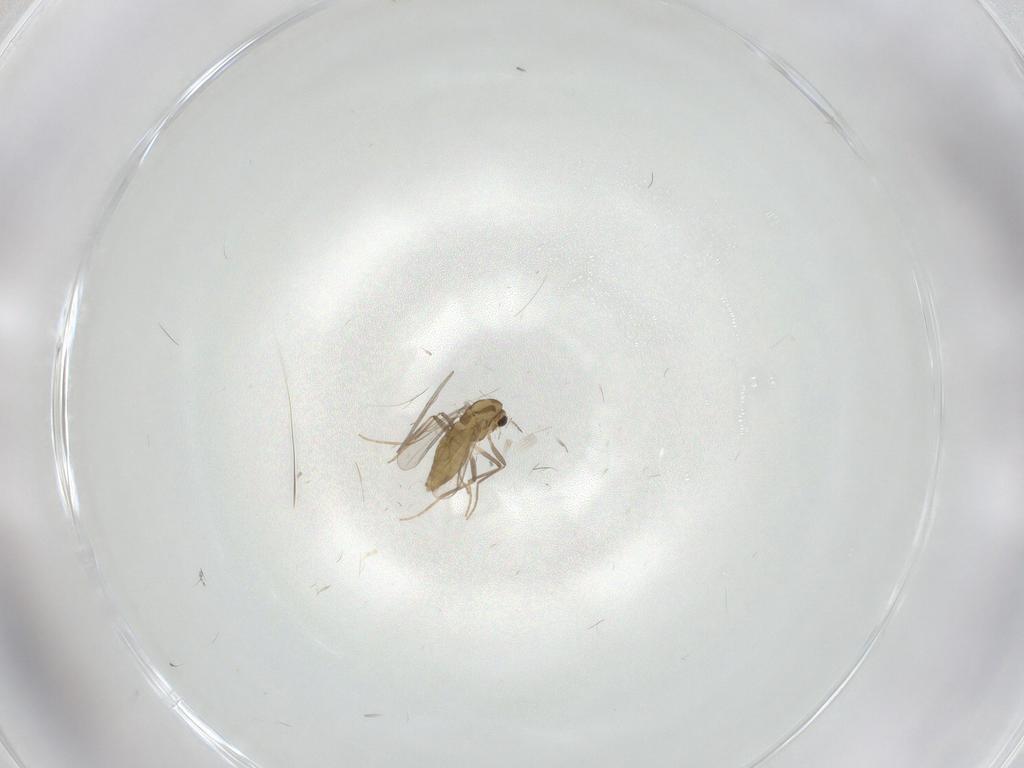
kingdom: Animalia
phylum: Arthropoda
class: Insecta
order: Diptera
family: Chironomidae
